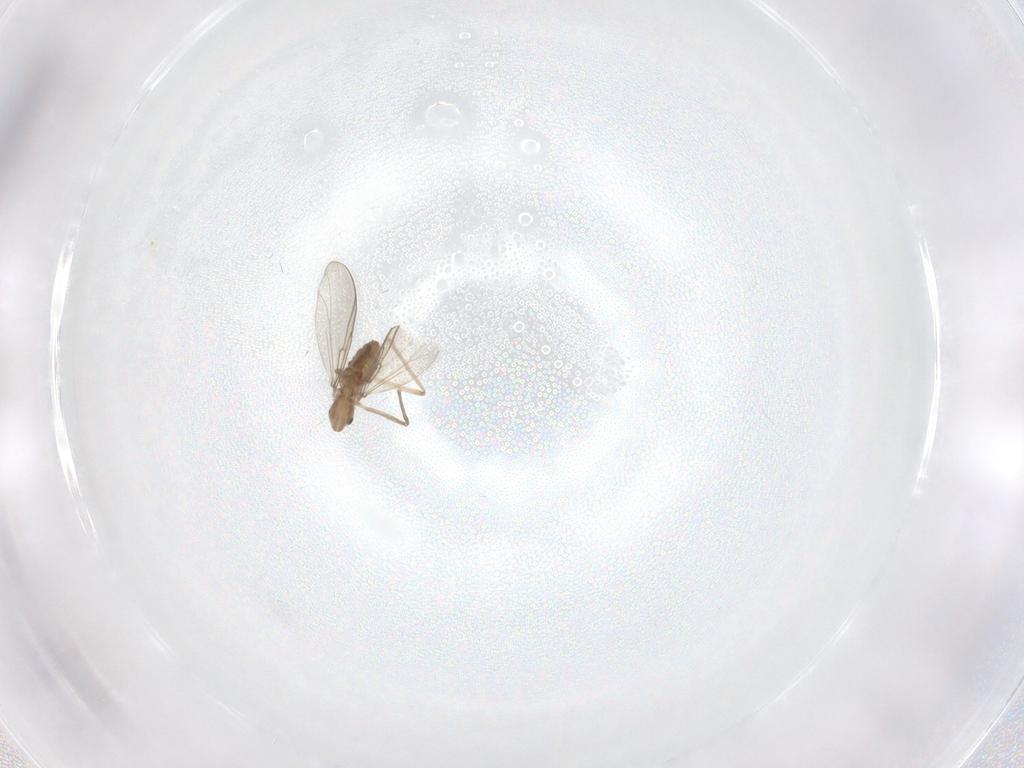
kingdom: Animalia
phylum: Arthropoda
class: Insecta
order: Diptera
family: Chironomidae
